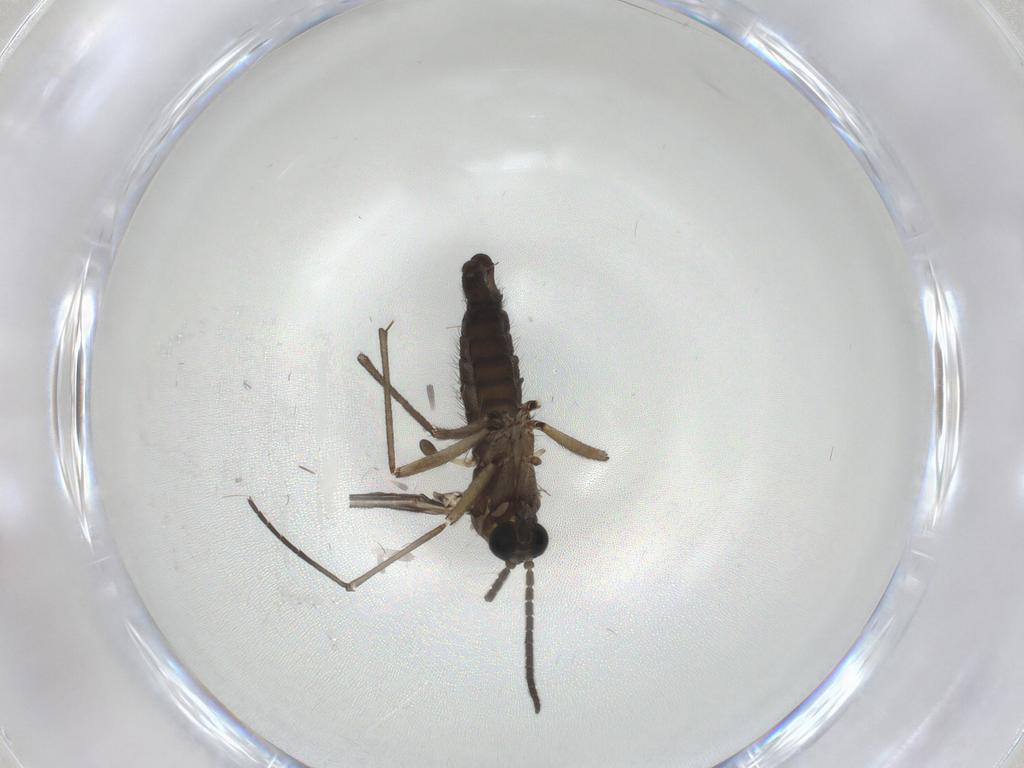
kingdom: Animalia
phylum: Arthropoda
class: Insecta
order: Diptera
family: Sciaridae
